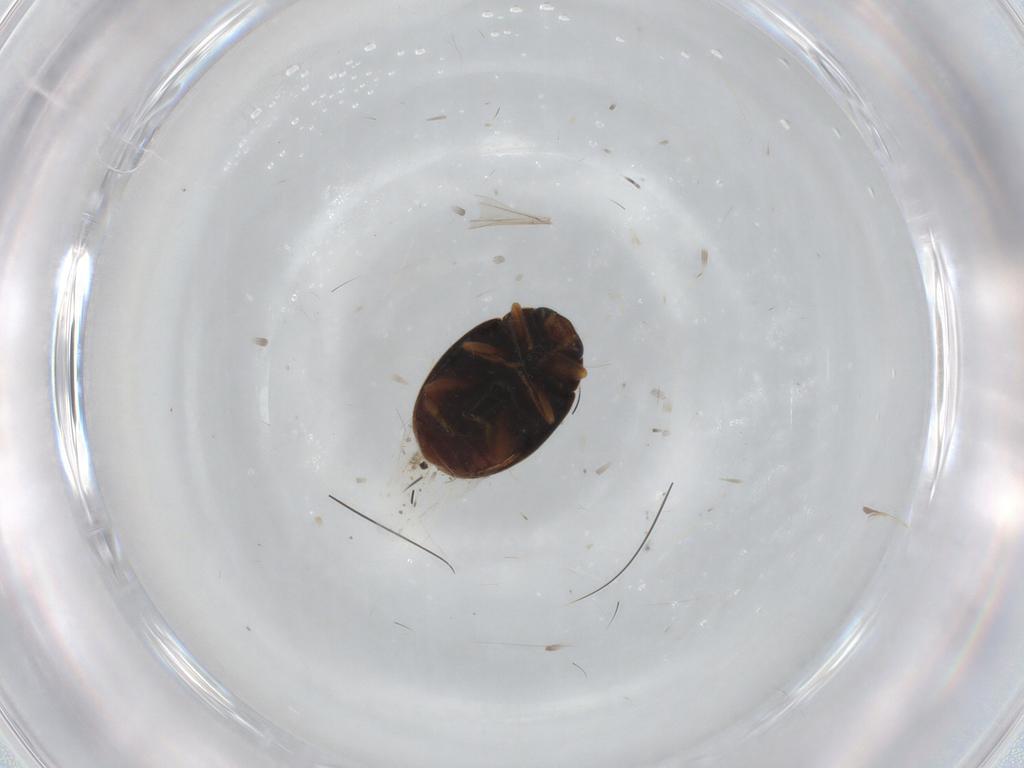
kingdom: Animalia
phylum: Arthropoda
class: Insecta
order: Coleoptera
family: Coccinellidae
